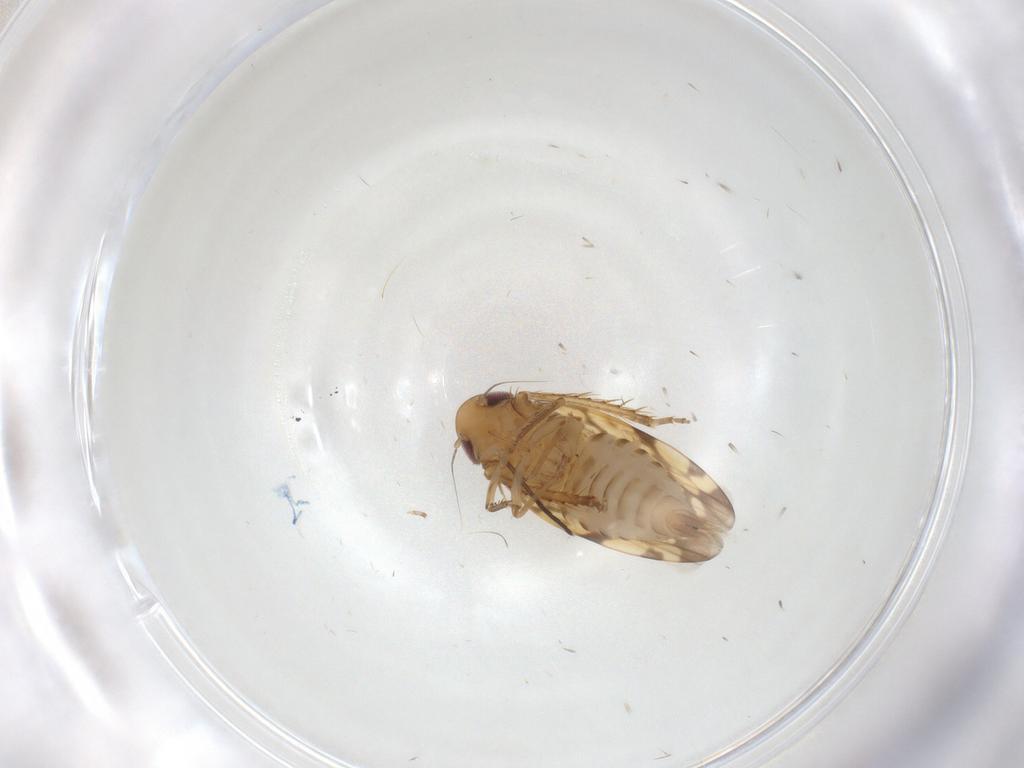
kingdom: Animalia
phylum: Arthropoda
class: Insecta
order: Hemiptera
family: Cicadellidae
